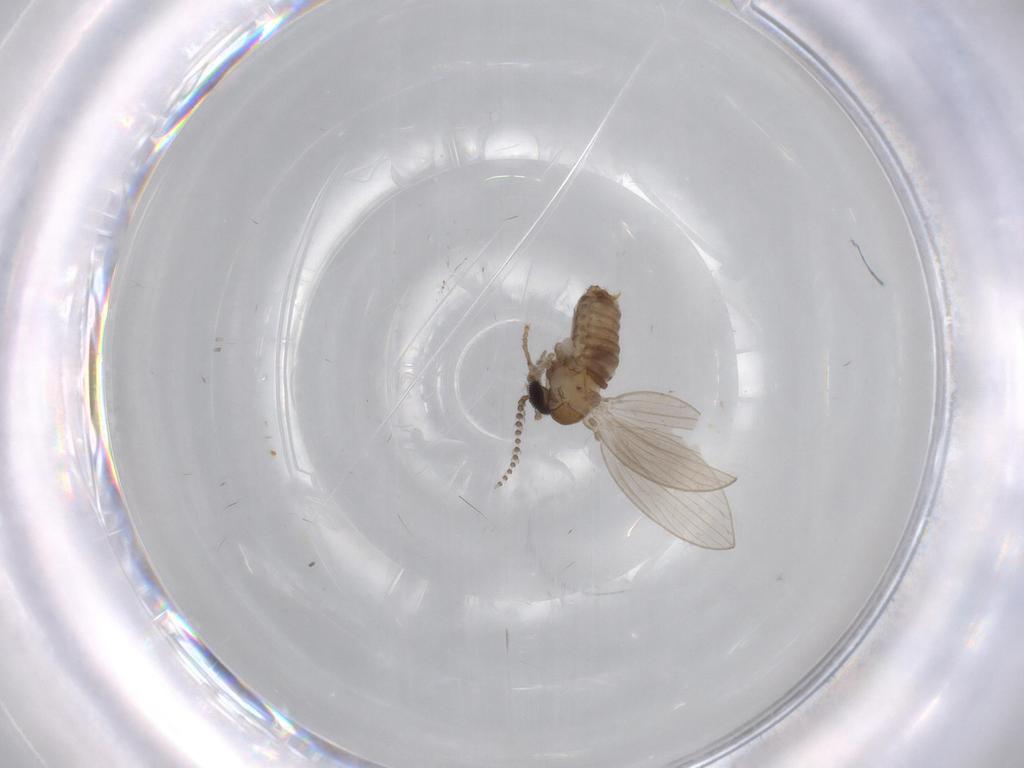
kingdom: Animalia
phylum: Arthropoda
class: Insecta
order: Diptera
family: Psychodidae
